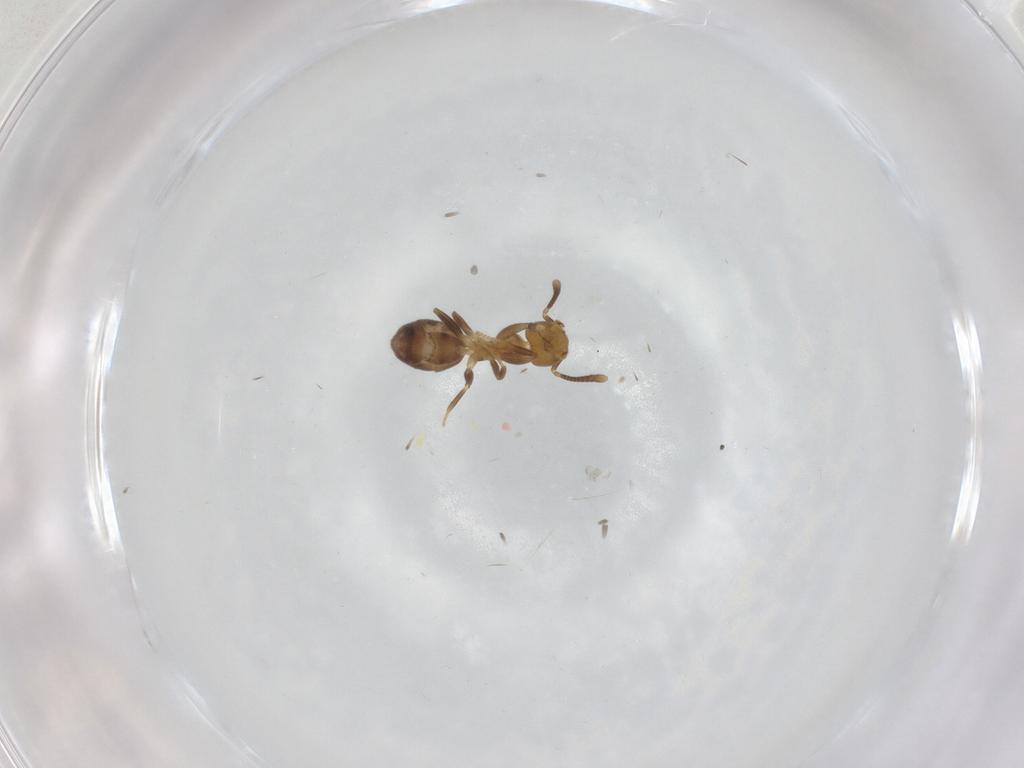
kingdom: Animalia
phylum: Arthropoda
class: Insecta
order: Hymenoptera
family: Formicidae
